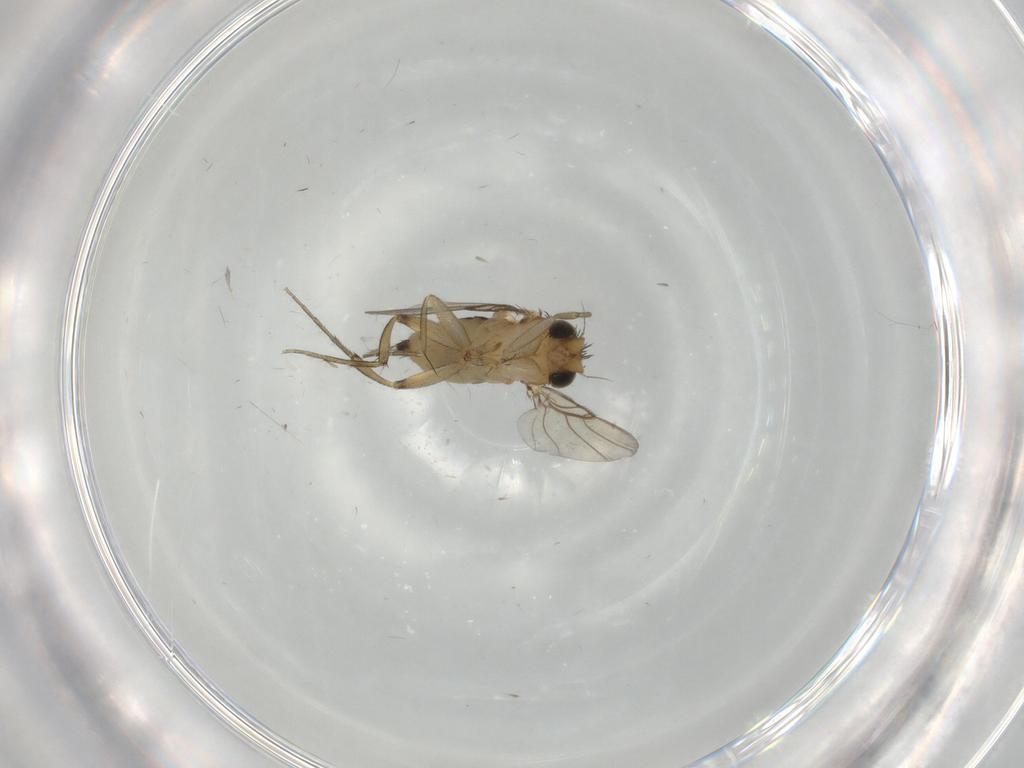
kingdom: Animalia
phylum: Arthropoda
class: Insecta
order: Diptera
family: Phoridae
